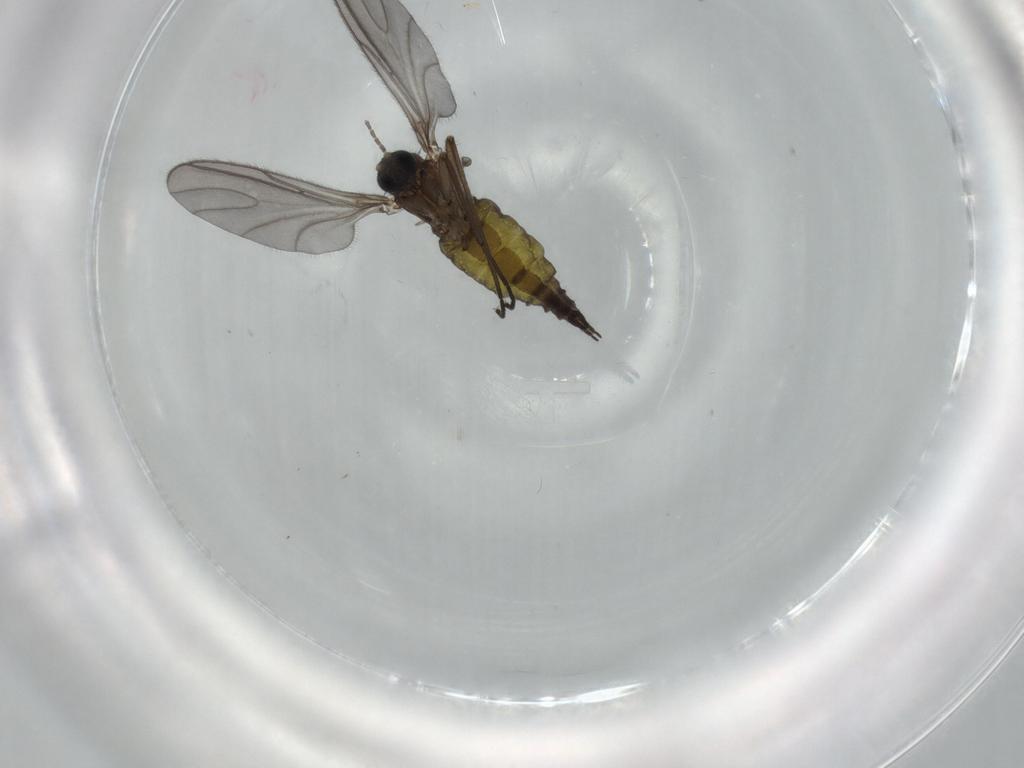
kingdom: Animalia
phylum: Arthropoda
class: Insecta
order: Diptera
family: Sciaridae
